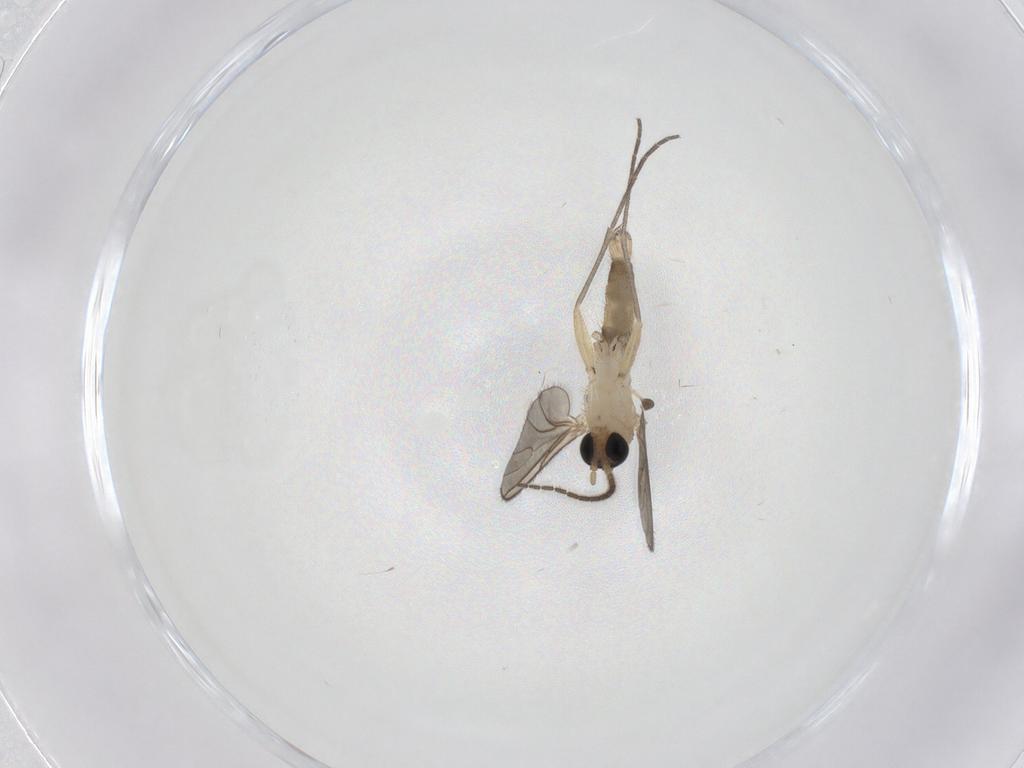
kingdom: Animalia
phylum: Arthropoda
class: Insecta
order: Diptera
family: Sciaridae
